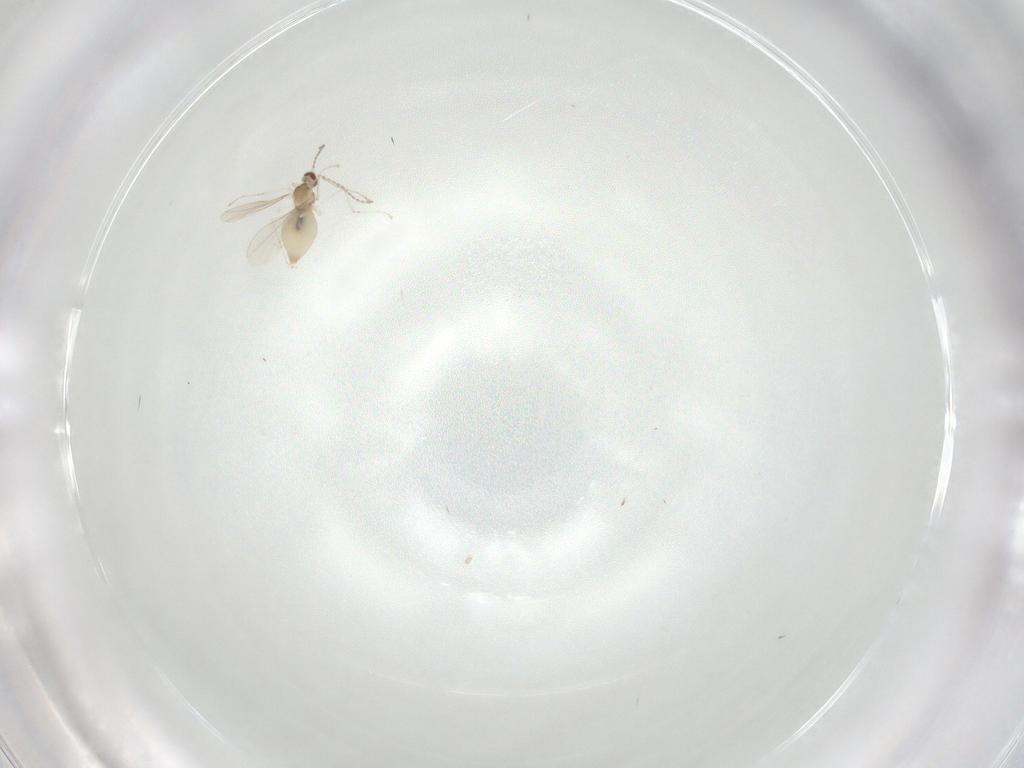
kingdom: Animalia
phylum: Arthropoda
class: Insecta
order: Diptera
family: Cecidomyiidae
